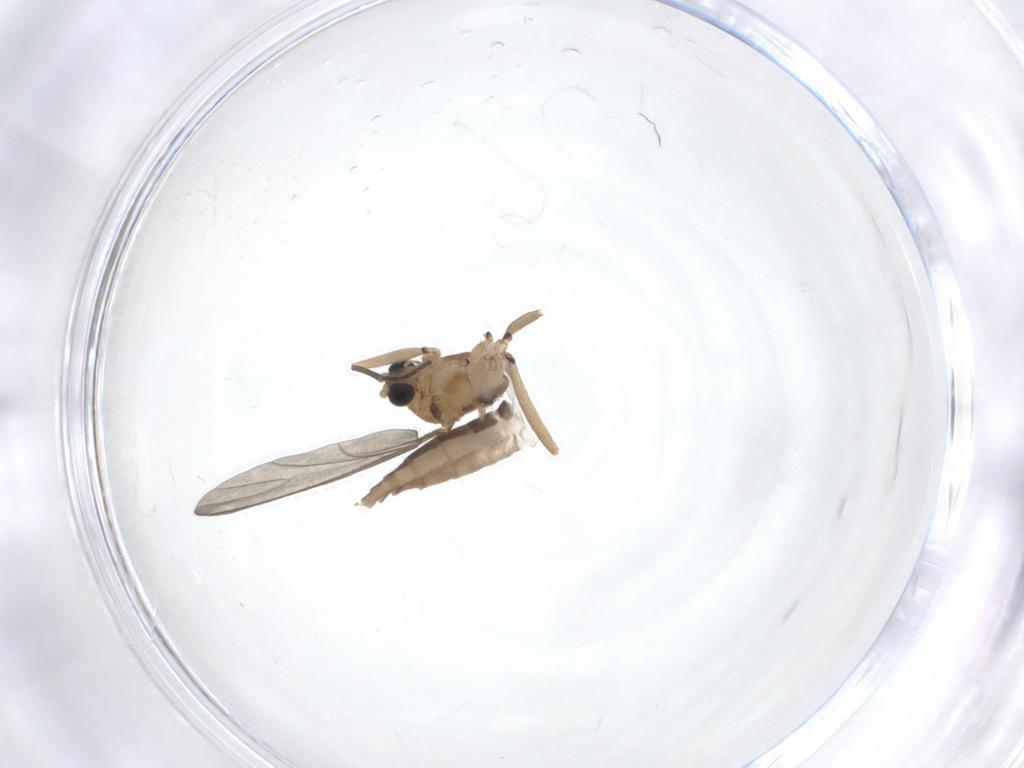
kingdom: Animalia
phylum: Arthropoda
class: Insecta
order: Diptera
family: Sciaridae
